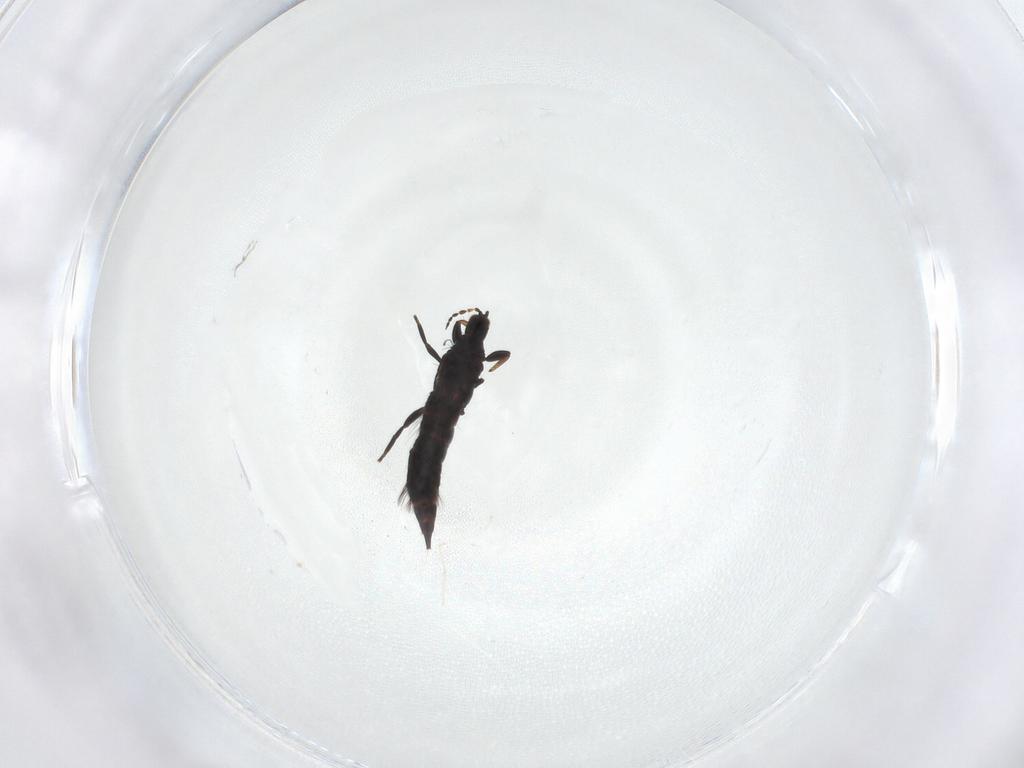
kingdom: Animalia
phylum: Arthropoda
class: Insecta
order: Thysanoptera
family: Phlaeothripidae
